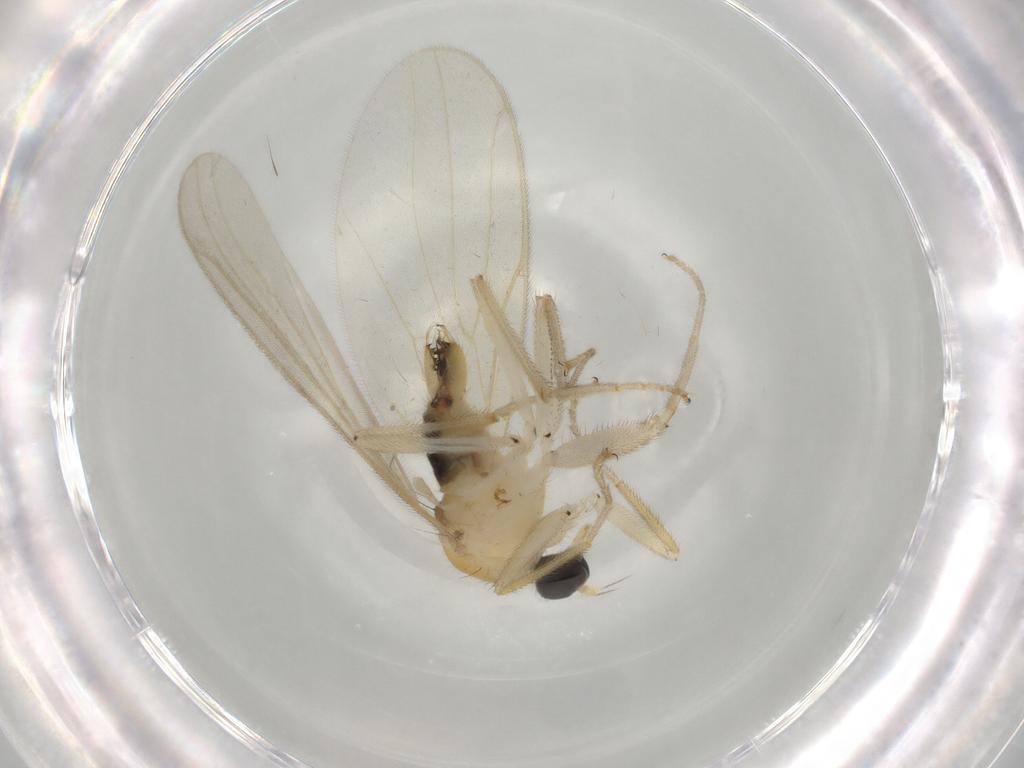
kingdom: Animalia
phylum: Arthropoda
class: Insecta
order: Diptera
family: Hybotidae
